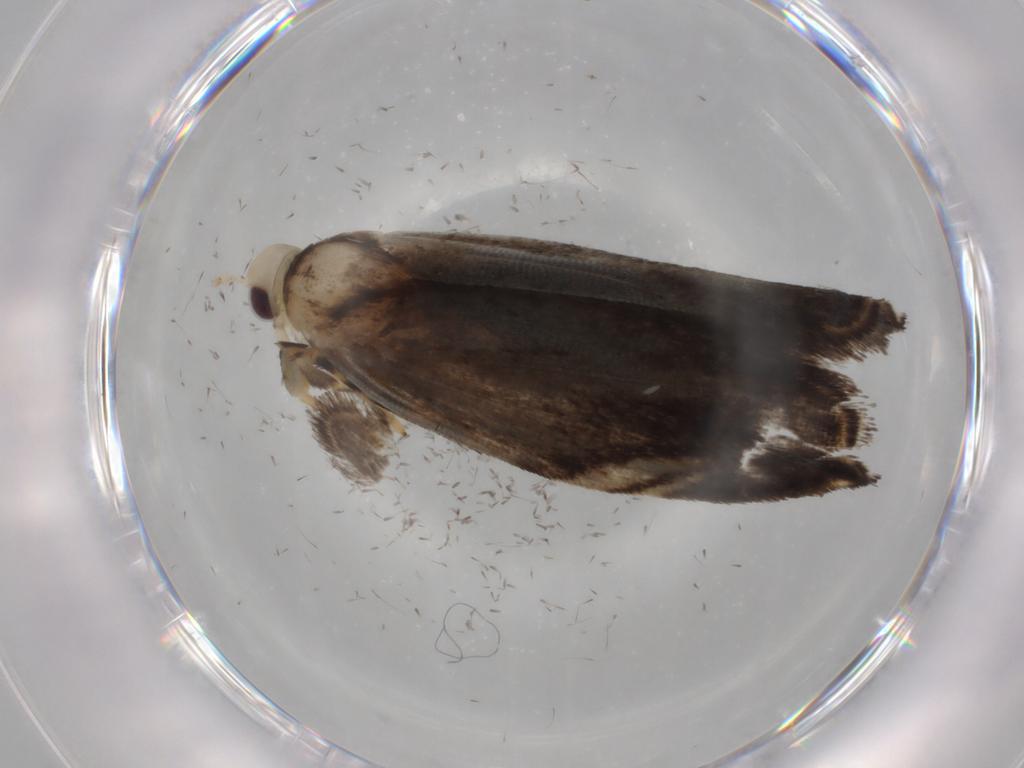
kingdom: Animalia
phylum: Arthropoda
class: Insecta
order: Lepidoptera
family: Gelechiidae
